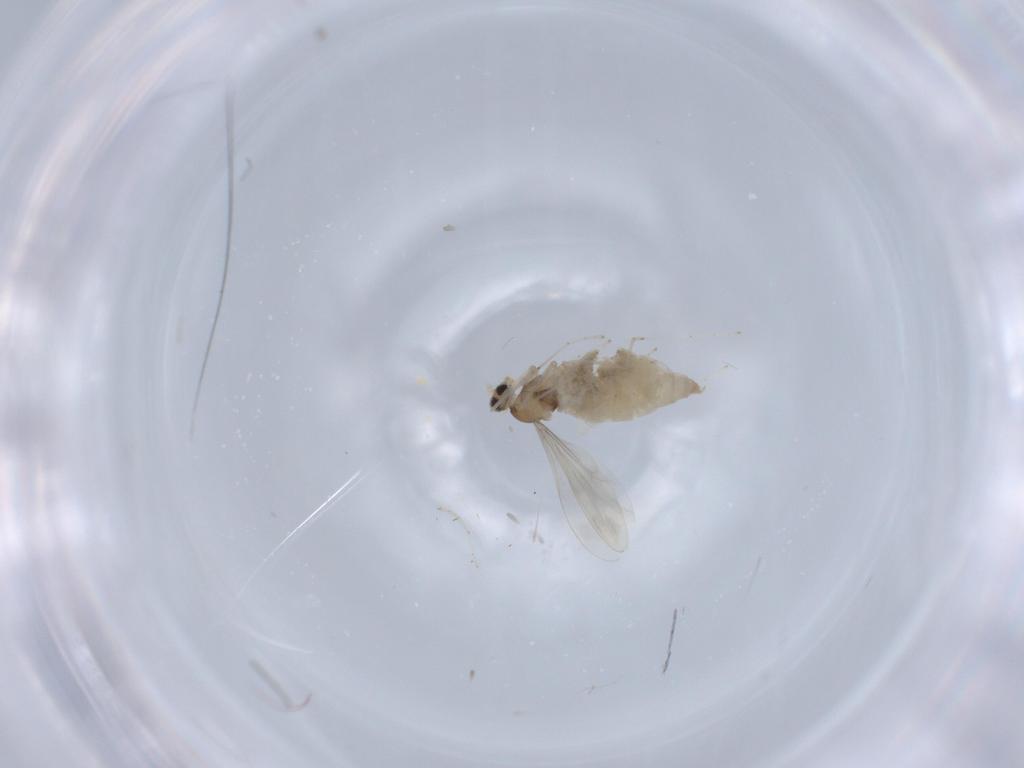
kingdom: Animalia
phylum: Arthropoda
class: Insecta
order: Diptera
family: Cecidomyiidae
